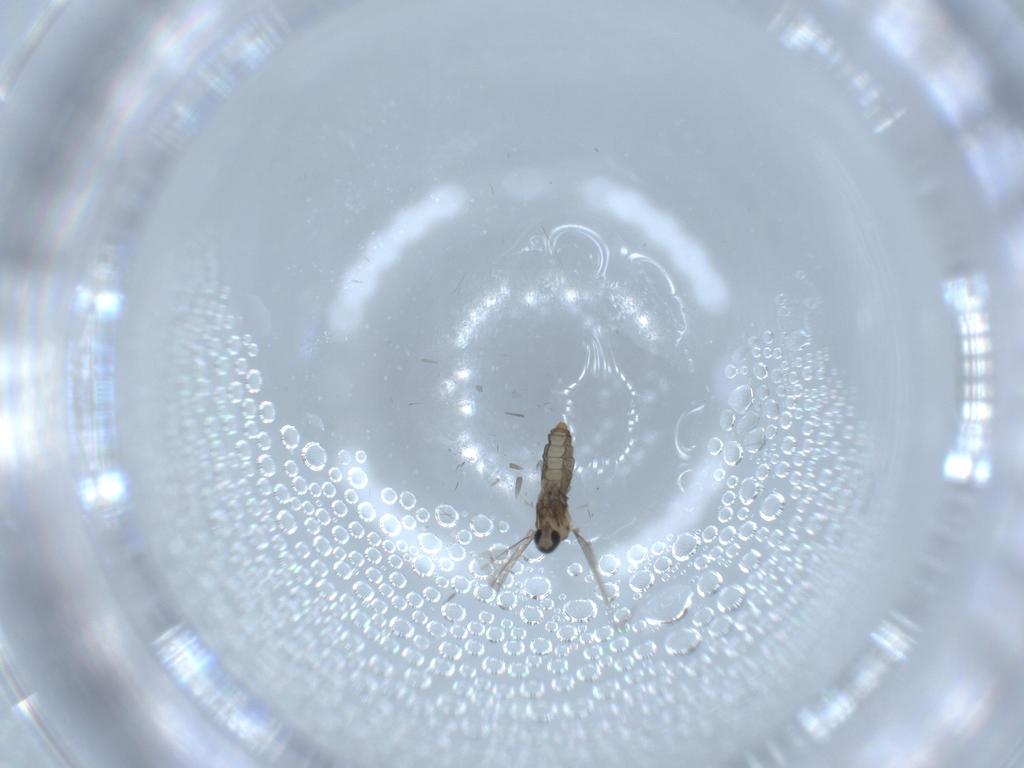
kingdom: Animalia
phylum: Arthropoda
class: Insecta
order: Diptera
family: Cecidomyiidae
